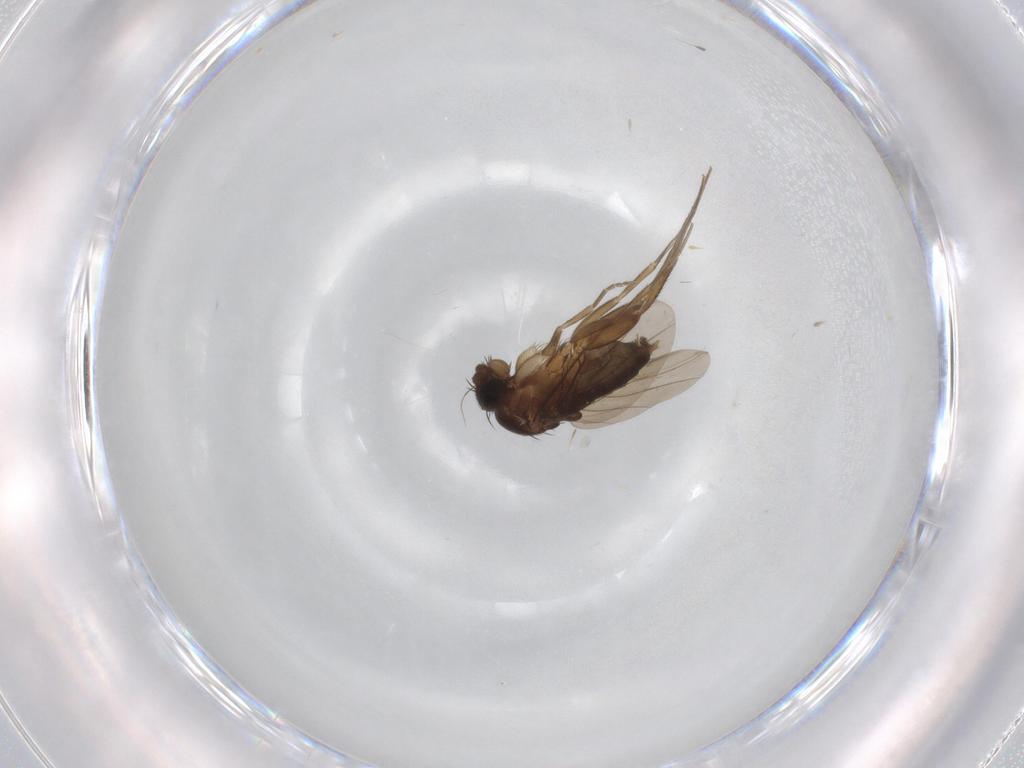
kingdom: Animalia
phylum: Arthropoda
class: Insecta
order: Diptera
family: Phoridae
